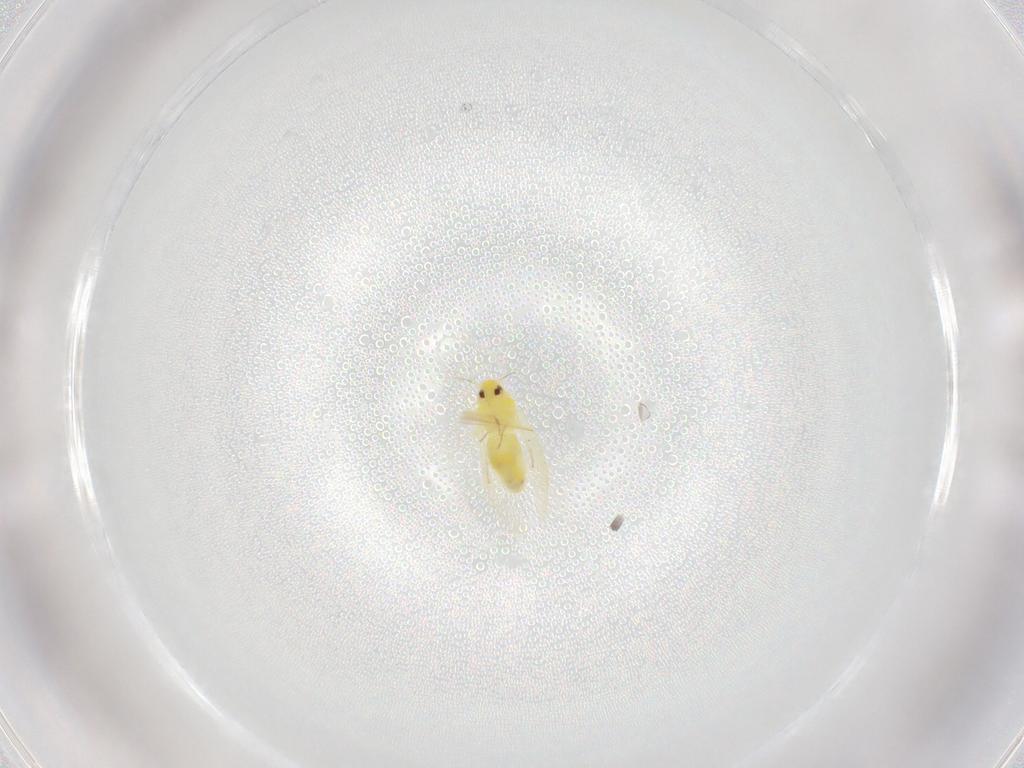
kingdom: Animalia
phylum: Arthropoda
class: Insecta
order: Hemiptera
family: Aleyrodidae
